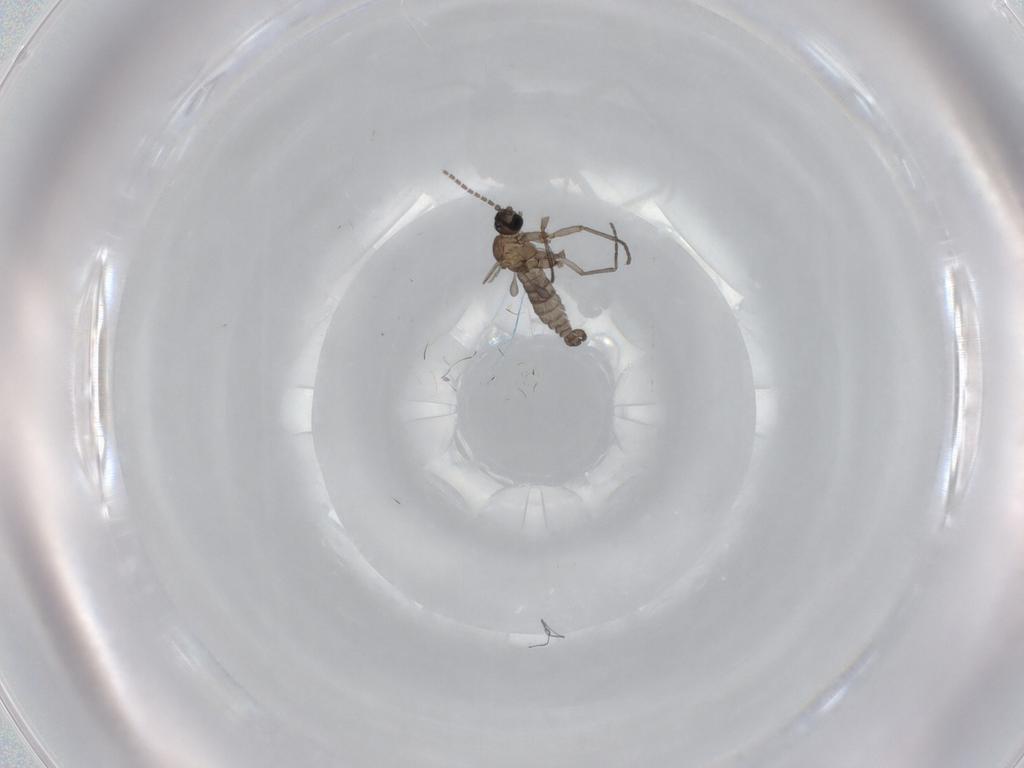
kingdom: Animalia
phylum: Arthropoda
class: Insecta
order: Diptera
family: Sciaridae
